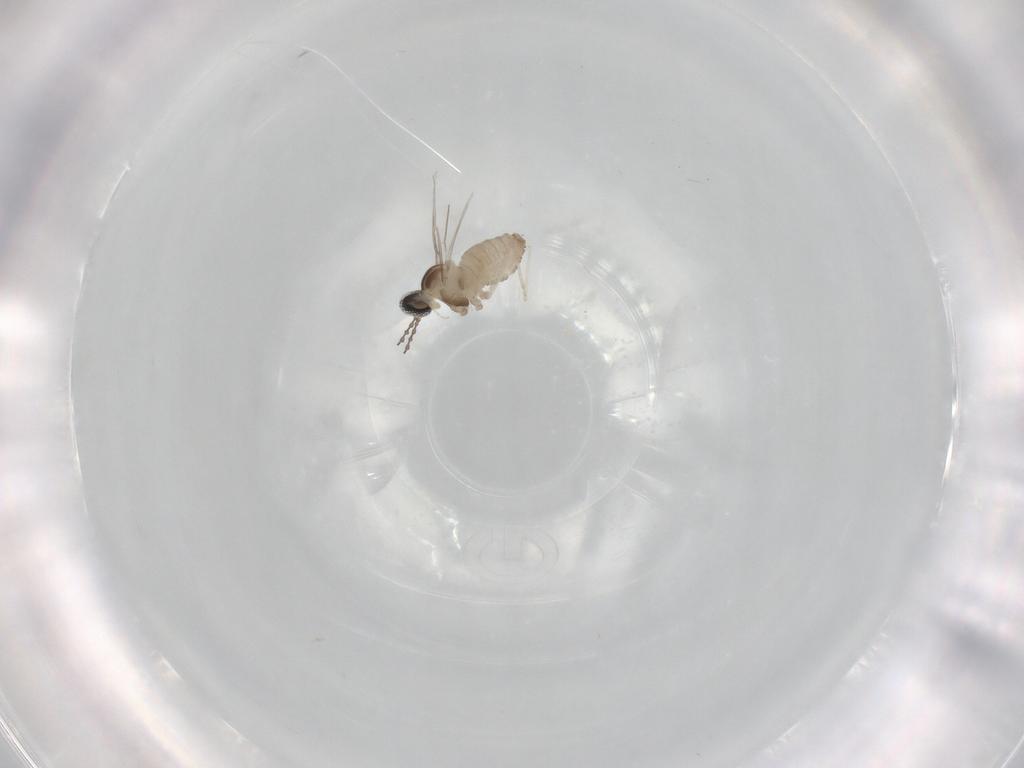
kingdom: Animalia
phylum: Arthropoda
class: Insecta
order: Diptera
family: Cecidomyiidae
